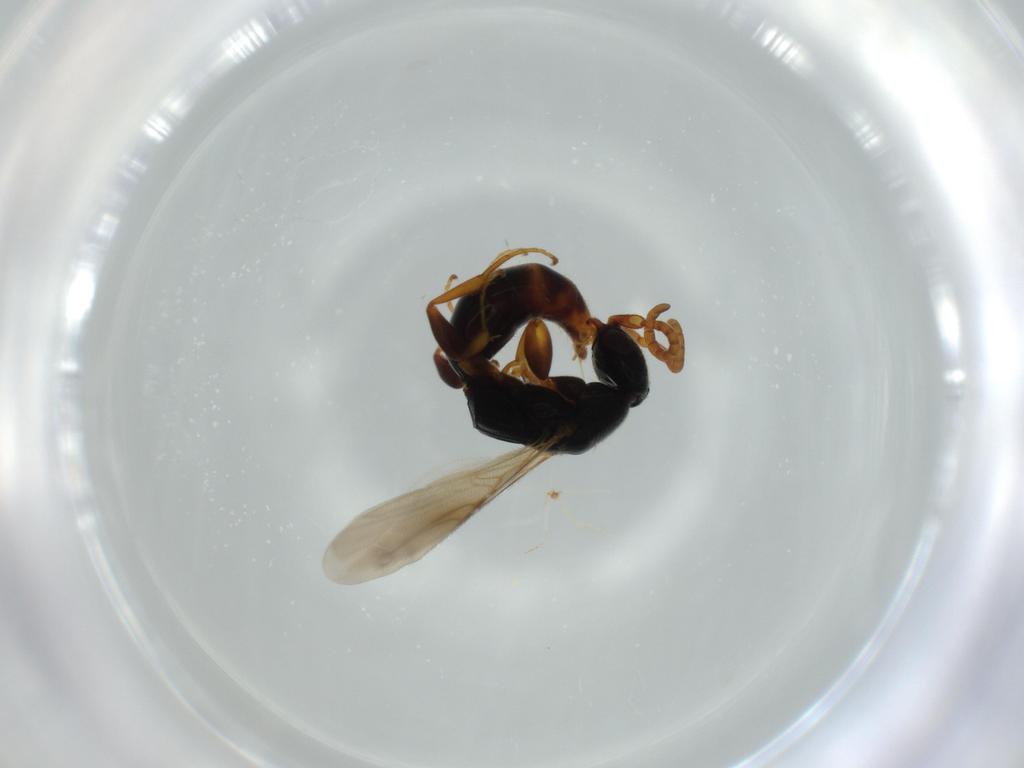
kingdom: Animalia
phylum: Arthropoda
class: Insecta
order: Hymenoptera
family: Bethylidae
